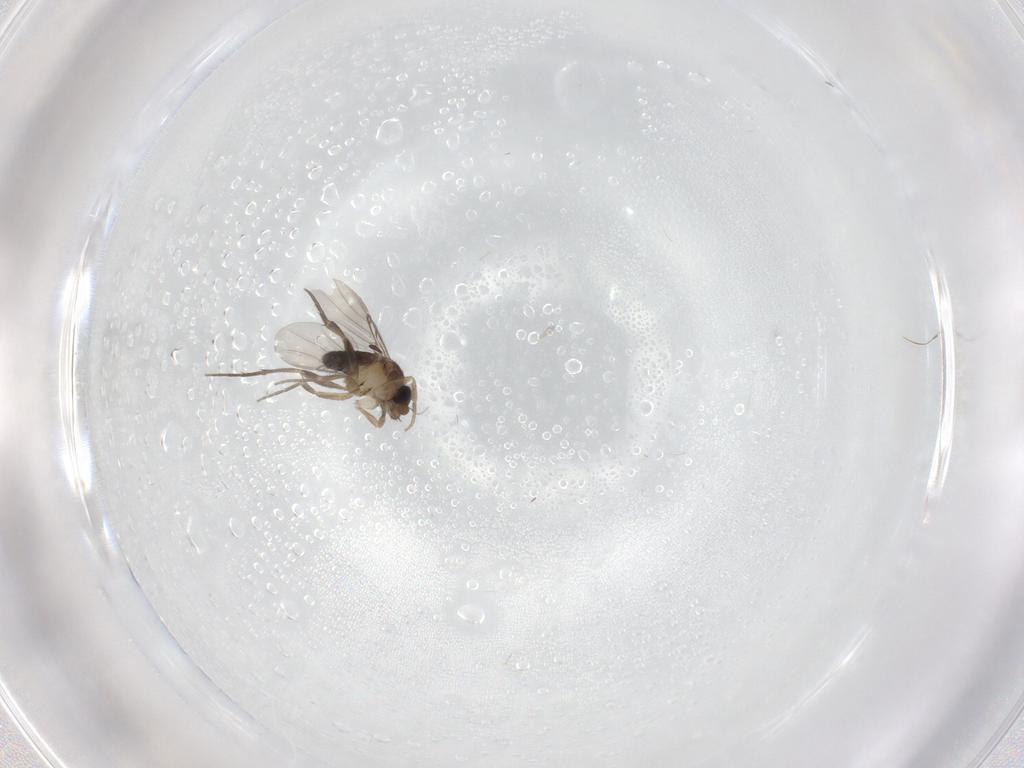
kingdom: Animalia
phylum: Arthropoda
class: Insecta
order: Diptera
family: Phoridae
